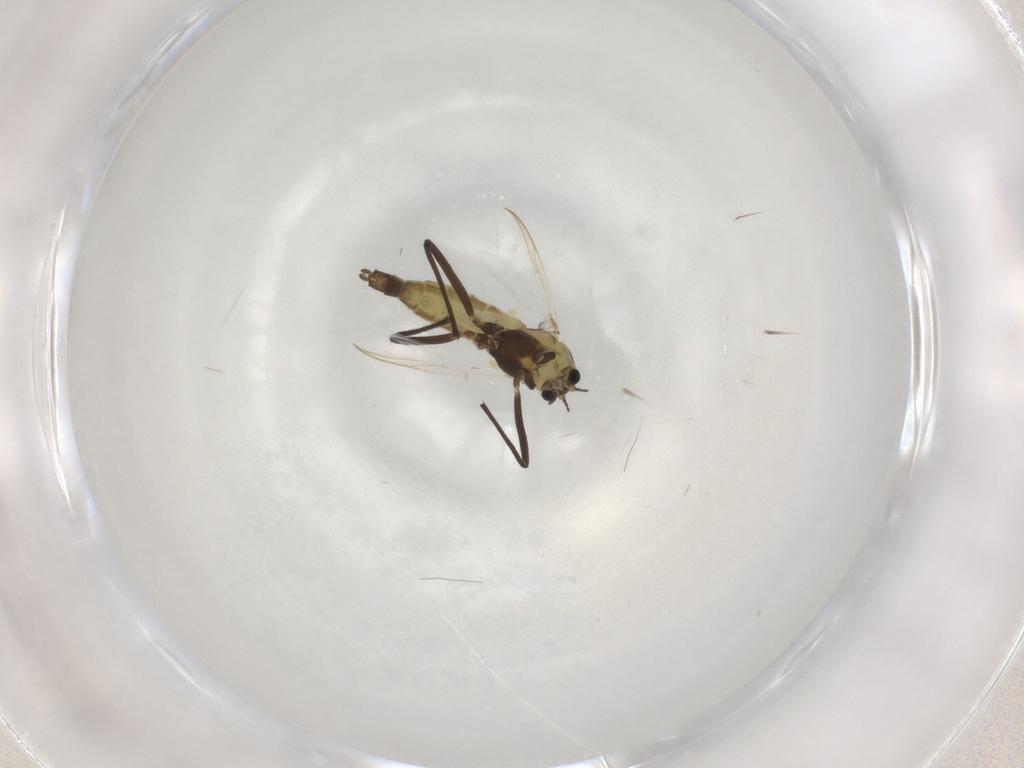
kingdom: Animalia
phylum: Arthropoda
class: Insecta
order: Diptera
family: Chironomidae
